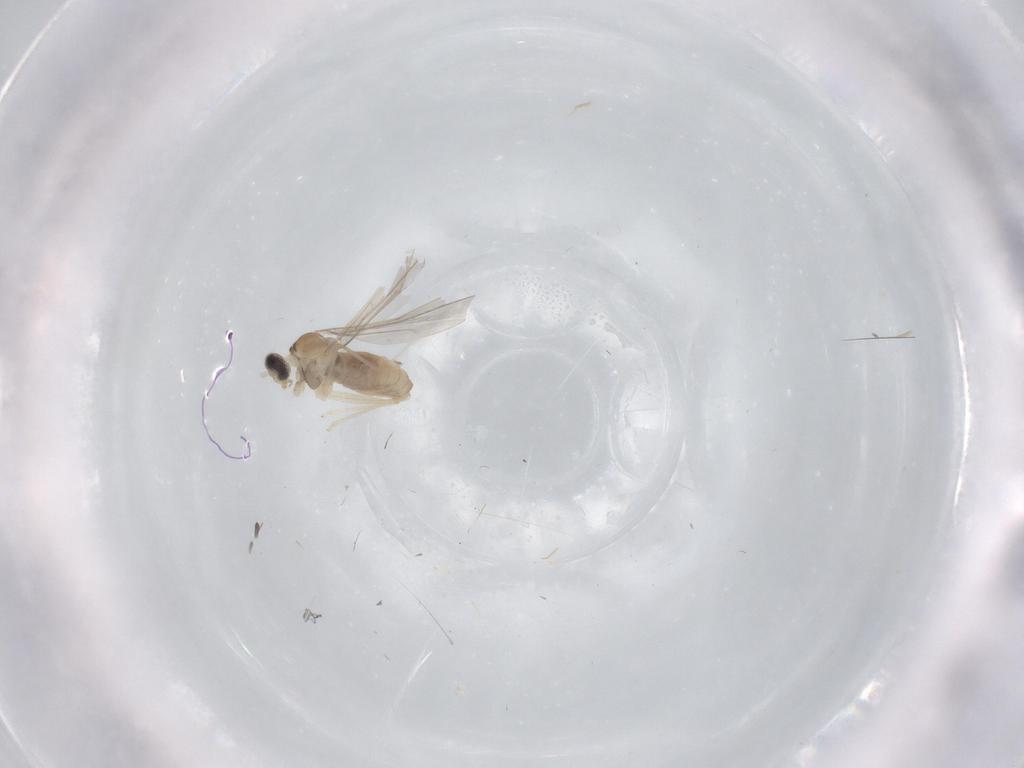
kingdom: Animalia
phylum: Arthropoda
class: Insecta
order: Diptera
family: Cecidomyiidae
